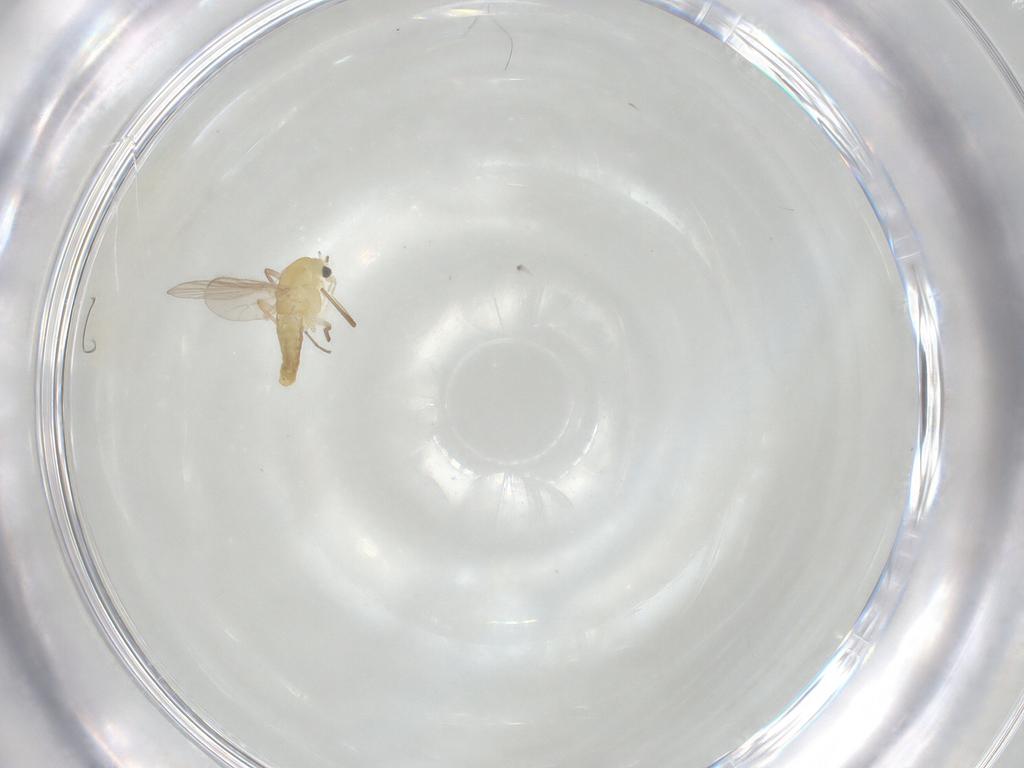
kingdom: Animalia
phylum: Arthropoda
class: Insecta
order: Diptera
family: Chironomidae
